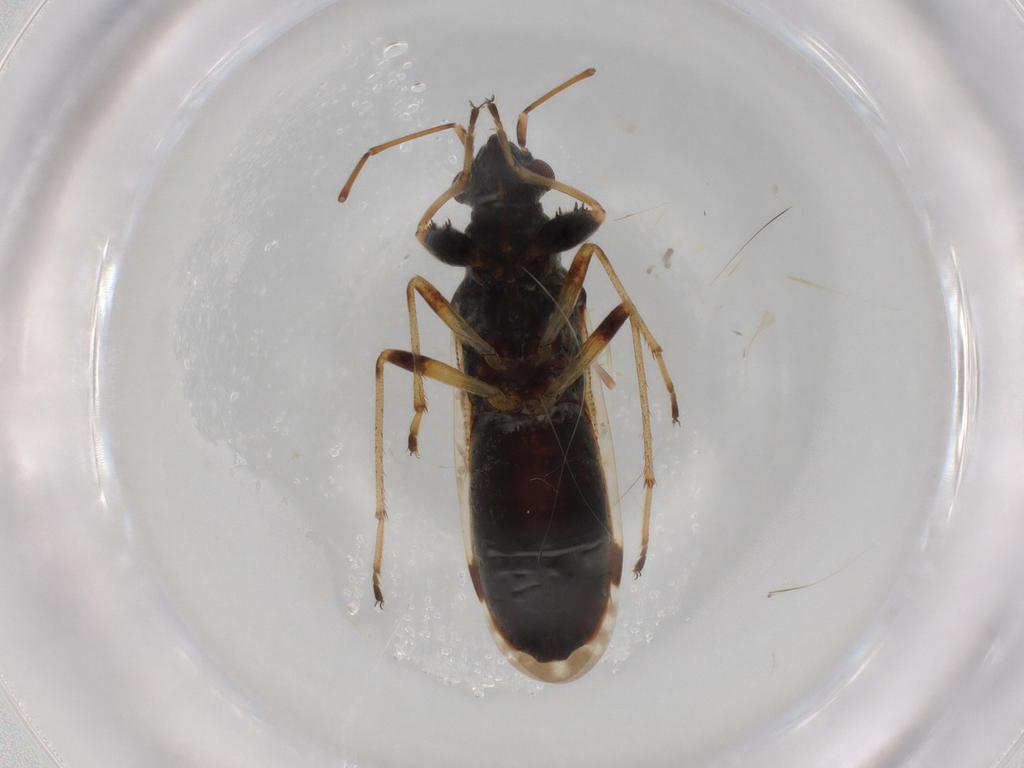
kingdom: Animalia
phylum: Arthropoda
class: Insecta
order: Hemiptera
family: Rhyparochromidae
